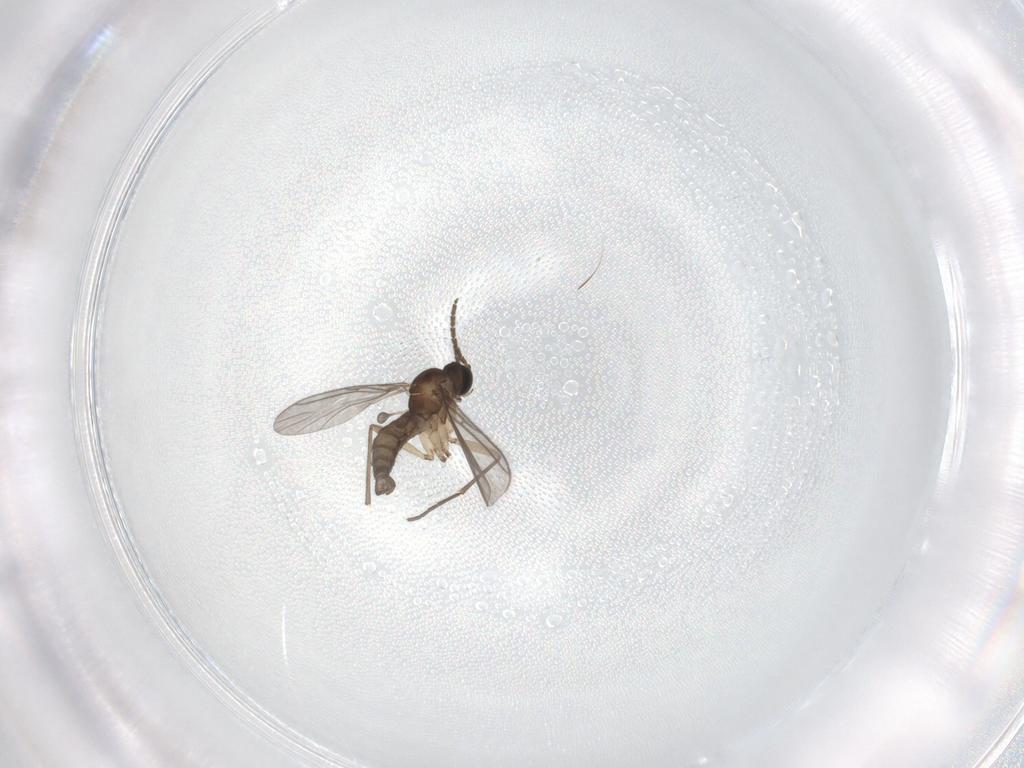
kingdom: Animalia
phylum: Arthropoda
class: Insecta
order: Diptera
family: Sciaridae
